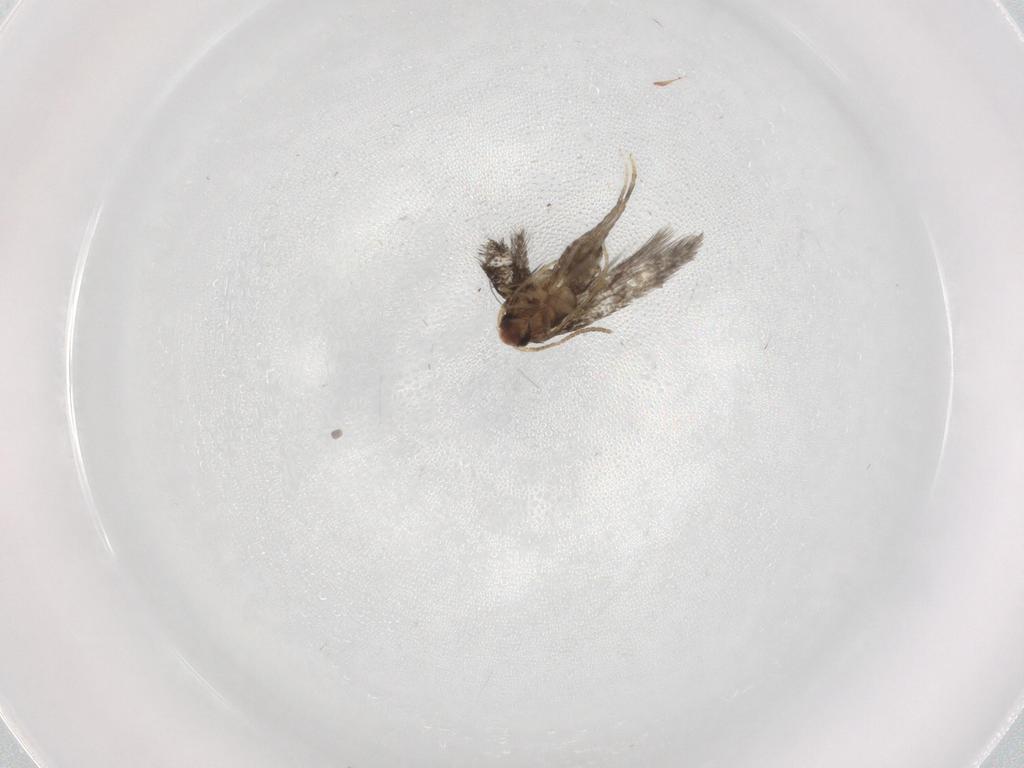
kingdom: Animalia
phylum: Arthropoda
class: Insecta
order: Lepidoptera
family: Nepticulidae
